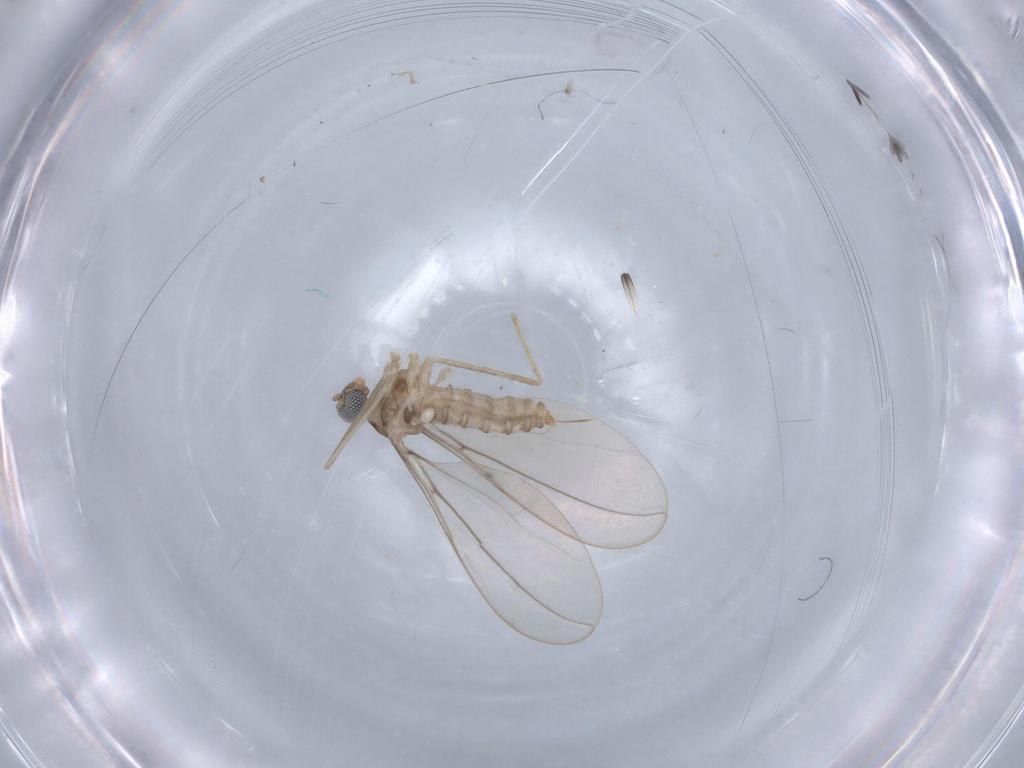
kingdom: Animalia
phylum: Arthropoda
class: Insecta
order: Diptera
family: Cecidomyiidae
